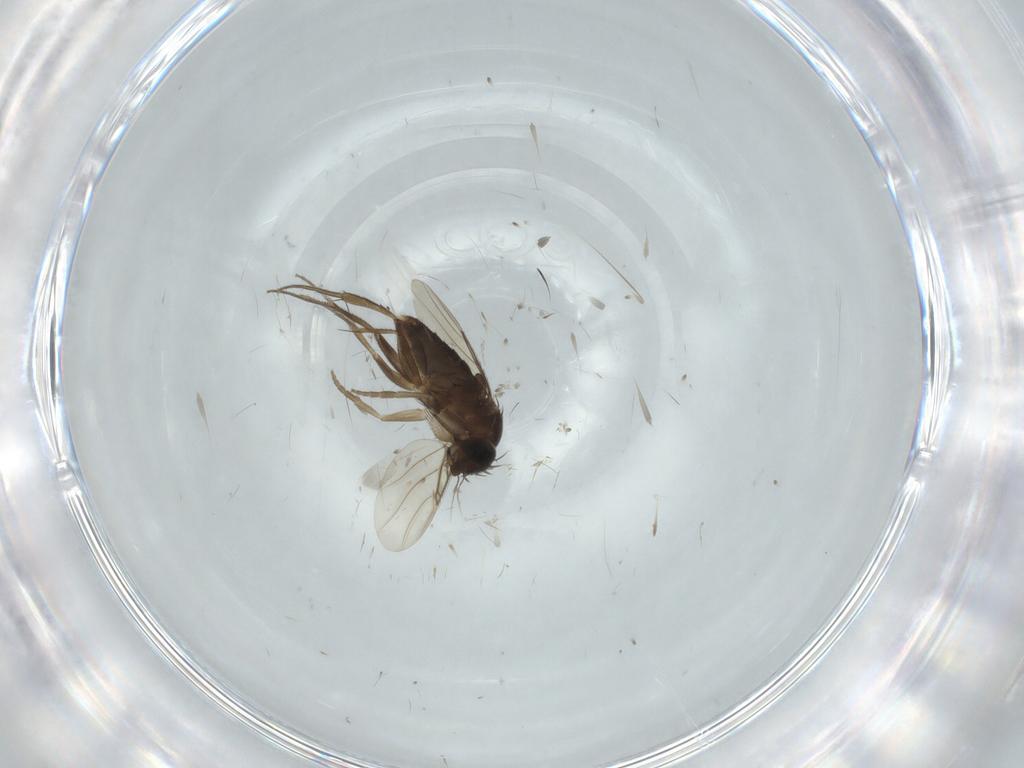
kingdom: Animalia
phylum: Arthropoda
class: Insecta
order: Diptera
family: Phoridae
